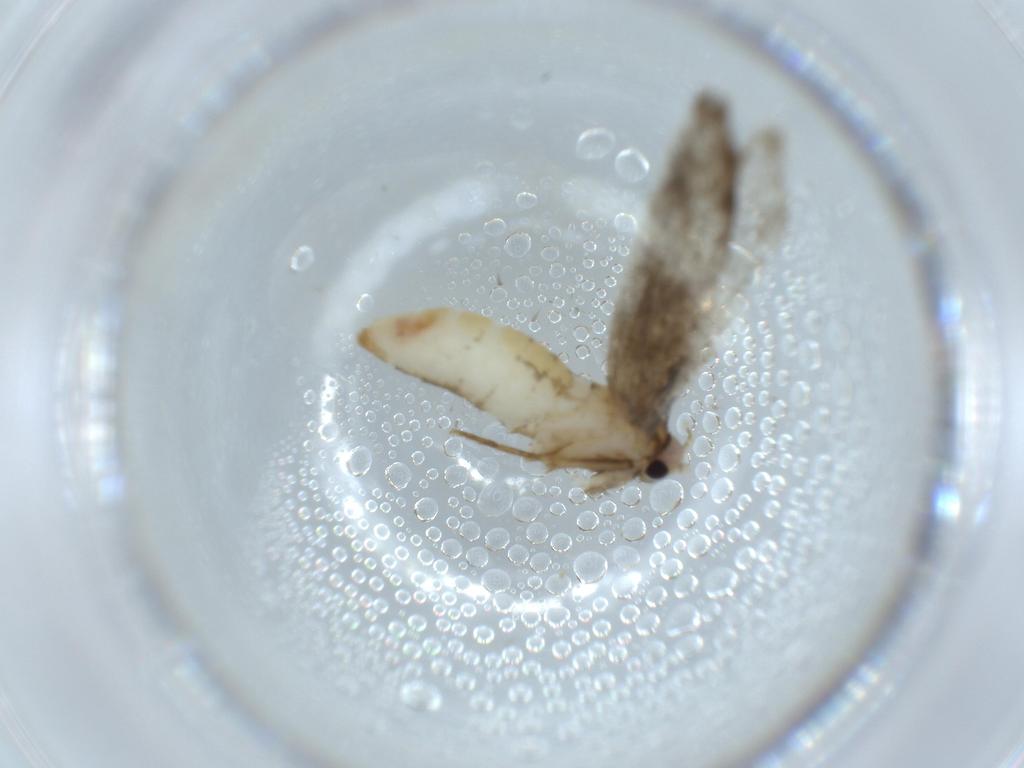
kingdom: Animalia
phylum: Arthropoda
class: Insecta
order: Lepidoptera
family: Tineidae
